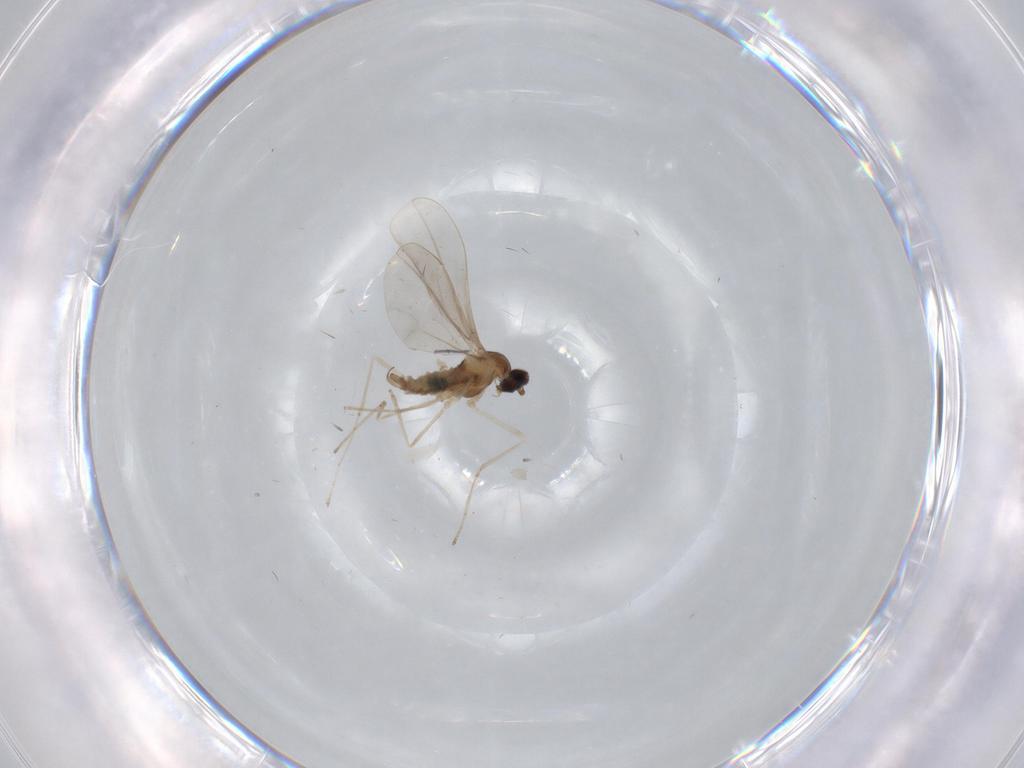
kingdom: Animalia
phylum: Arthropoda
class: Insecta
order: Diptera
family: Cecidomyiidae
